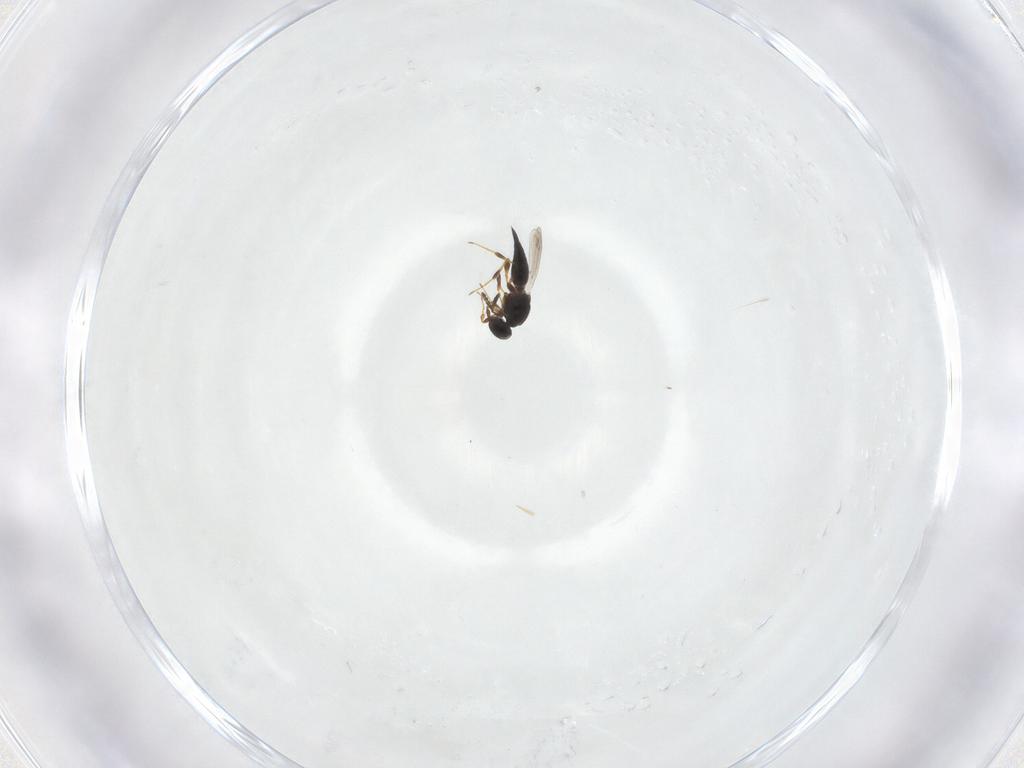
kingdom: Animalia
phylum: Arthropoda
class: Insecta
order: Hymenoptera
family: Platygastridae
